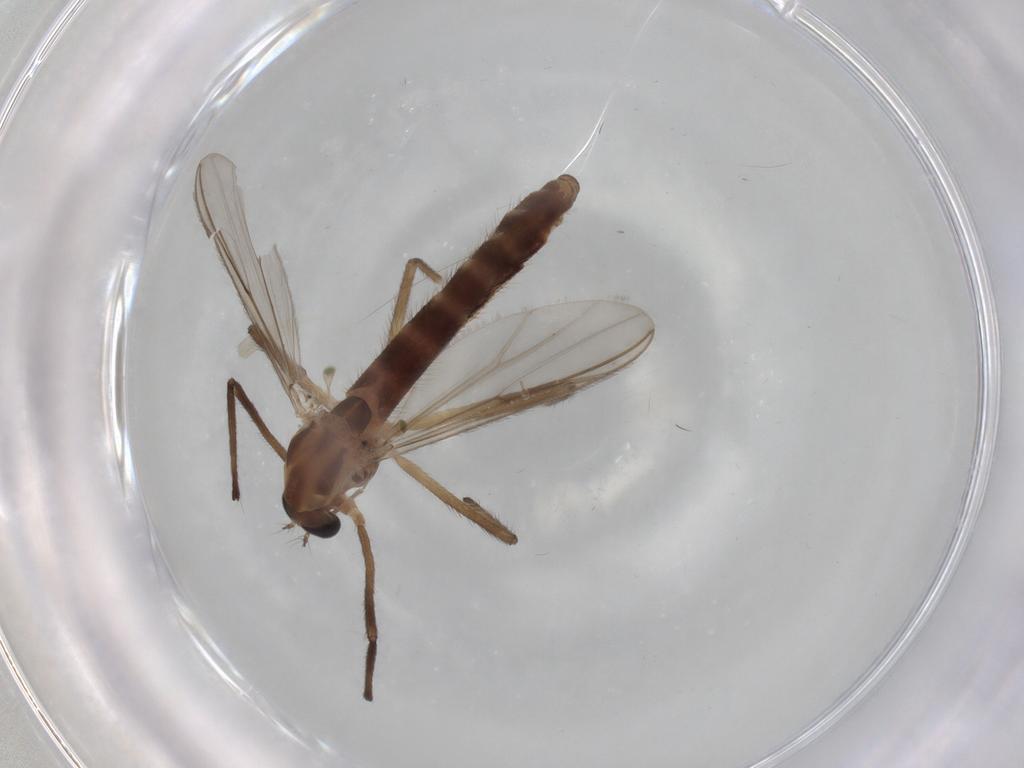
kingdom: Animalia
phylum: Arthropoda
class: Insecta
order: Diptera
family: Chironomidae
